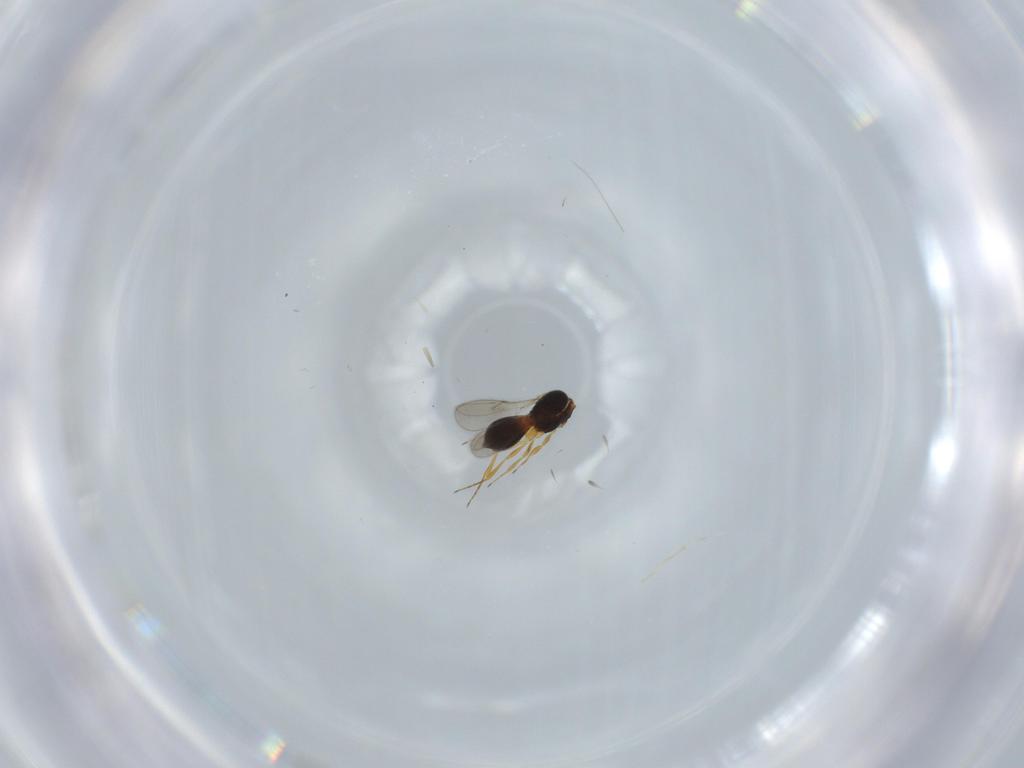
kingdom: Animalia
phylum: Arthropoda
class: Insecta
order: Hymenoptera
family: Scelionidae
